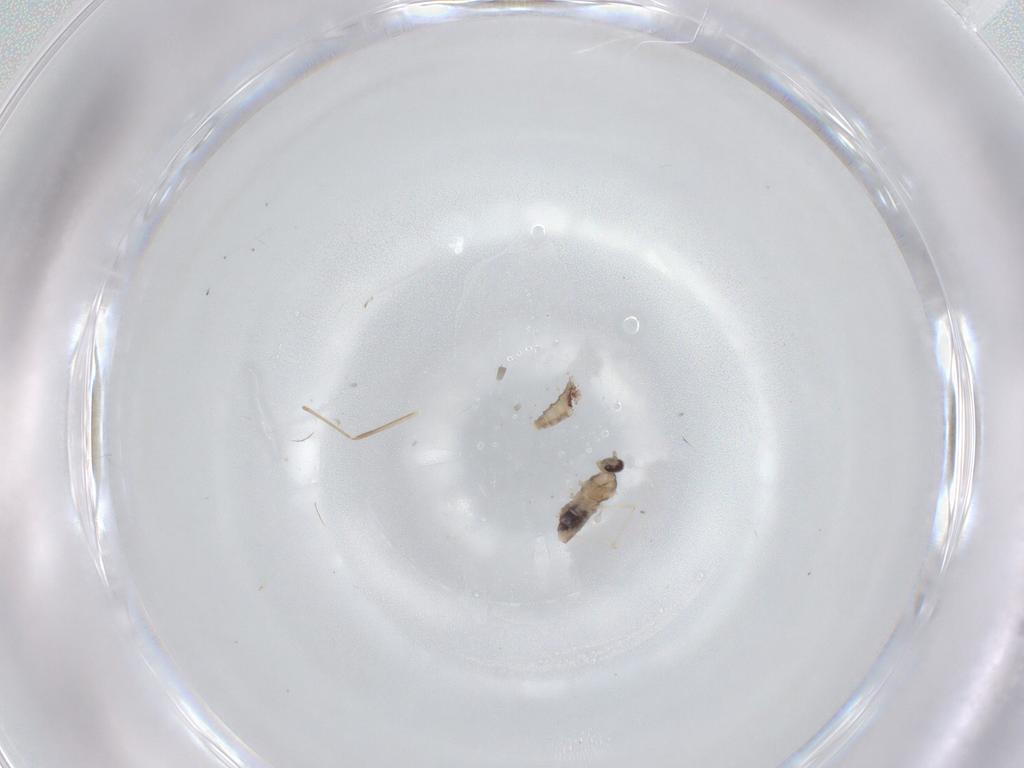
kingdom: Animalia
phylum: Arthropoda
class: Insecta
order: Diptera
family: Cecidomyiidae
